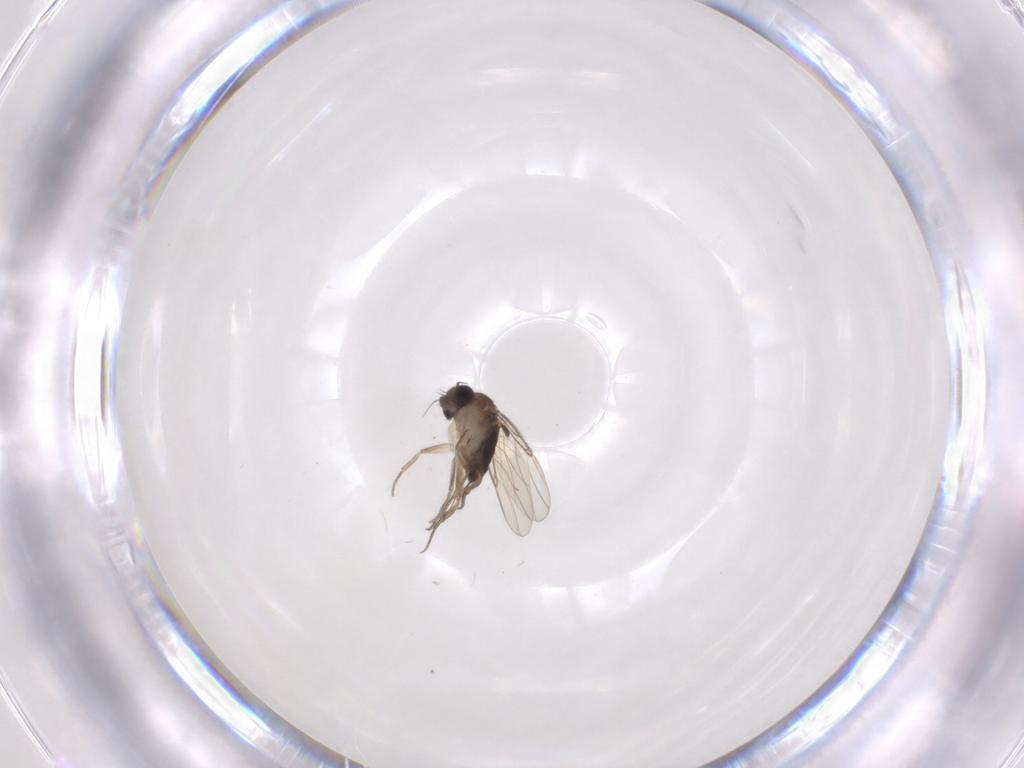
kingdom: Animalia
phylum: Arthropoda
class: Insecta
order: Diptera
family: Phoridae
